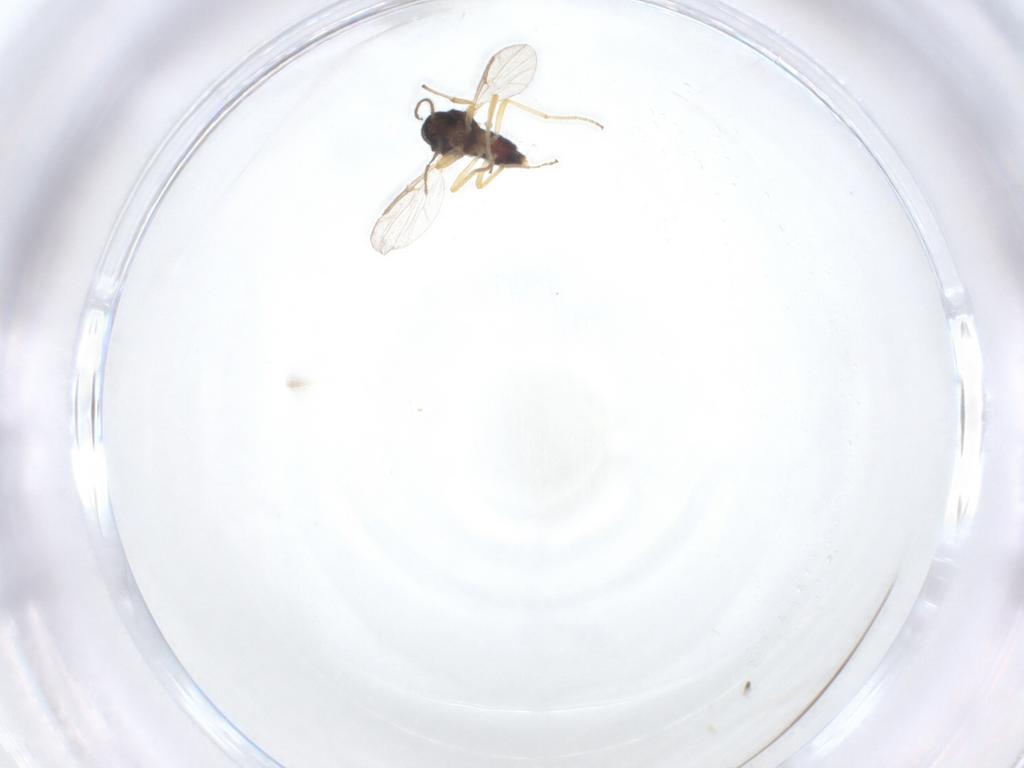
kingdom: Animalia
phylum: Arthropoda
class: Insecta
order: Diptera
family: Ceratopogonidae
